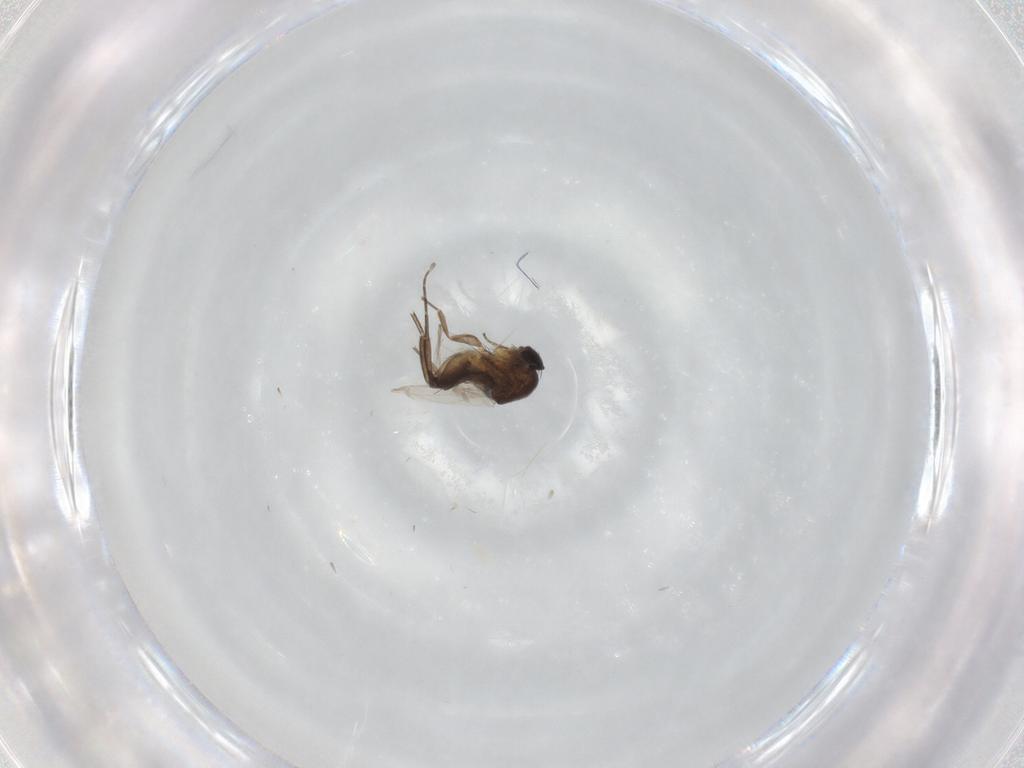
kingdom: Animalia
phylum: Arthropoda
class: Insecta
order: Diptera
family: Phoridae
